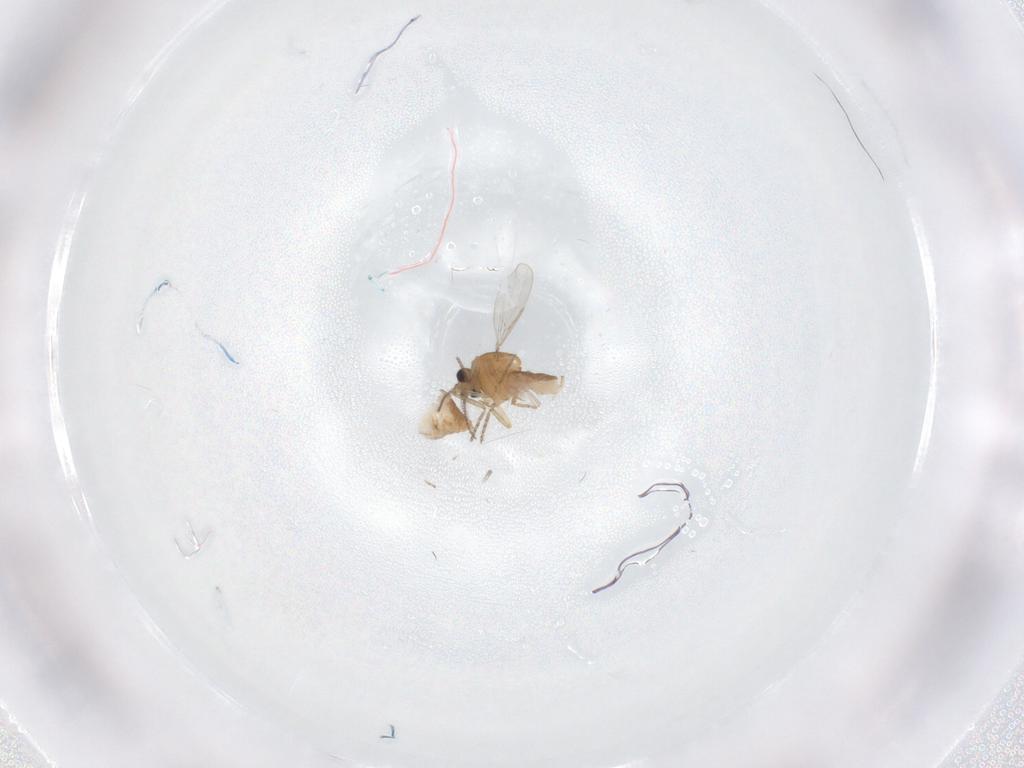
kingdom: Animalia
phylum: Arthropoda
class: Insecta
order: Diptera
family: Ceratopogonidae
